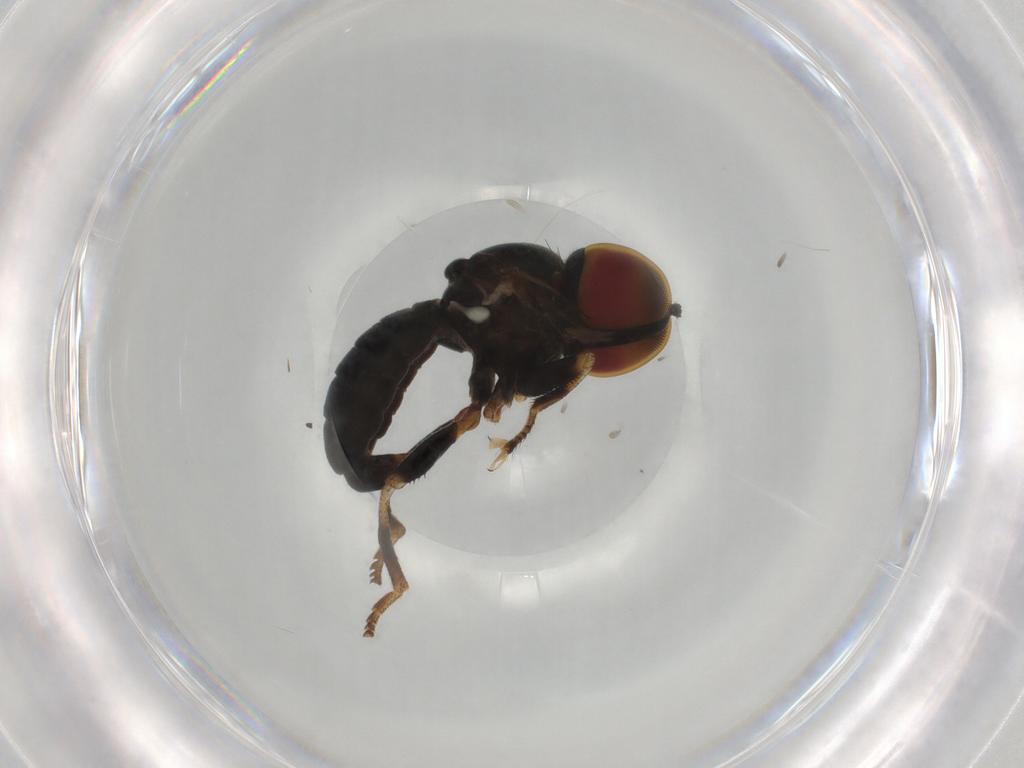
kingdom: Animalia
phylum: Arthropoda
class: Insecta
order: Diptera
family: Pipunculidae
